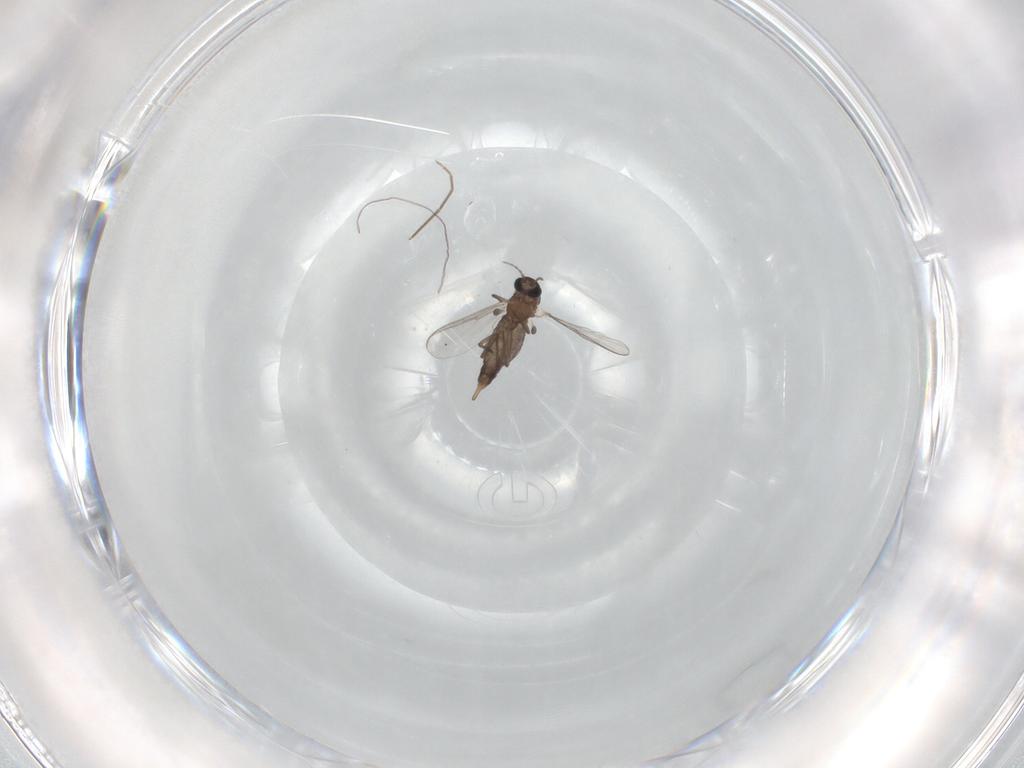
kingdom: Animalia
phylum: Arthropoda
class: Insecta
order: Diptera
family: Chironomidae
